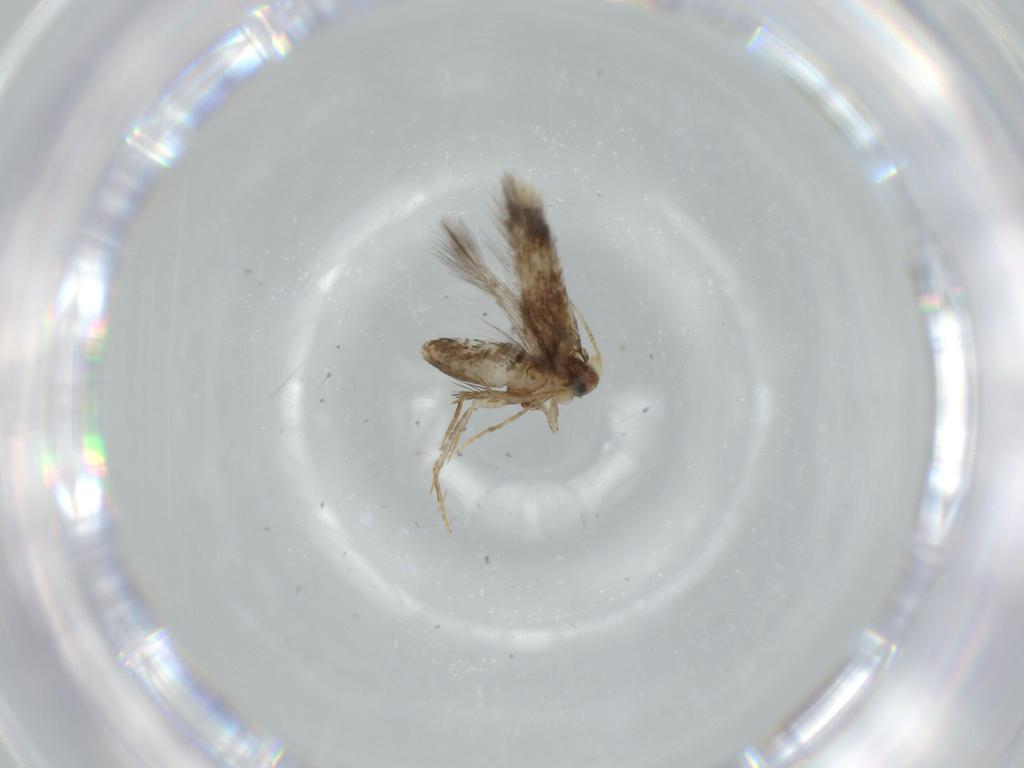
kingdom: Animalia
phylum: Arthropoda
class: Insecta
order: Lepidoptera
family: Nepticulidae
